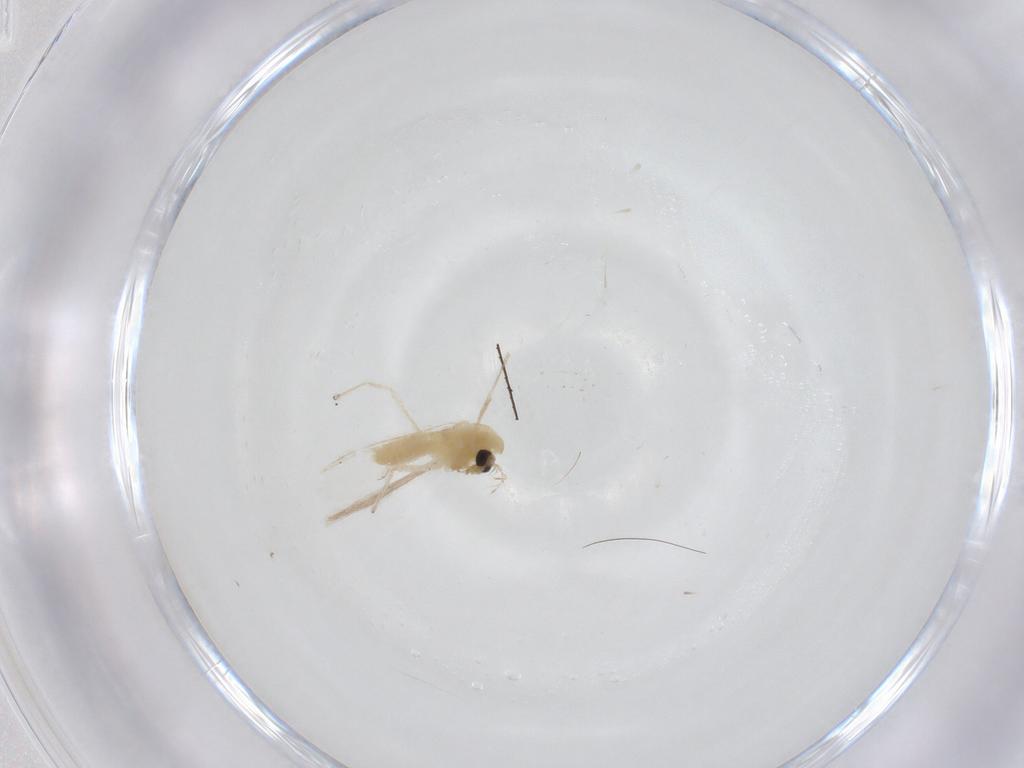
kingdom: Animalia
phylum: Arthropoda
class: Insecta
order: Diptera
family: Chironomidae
